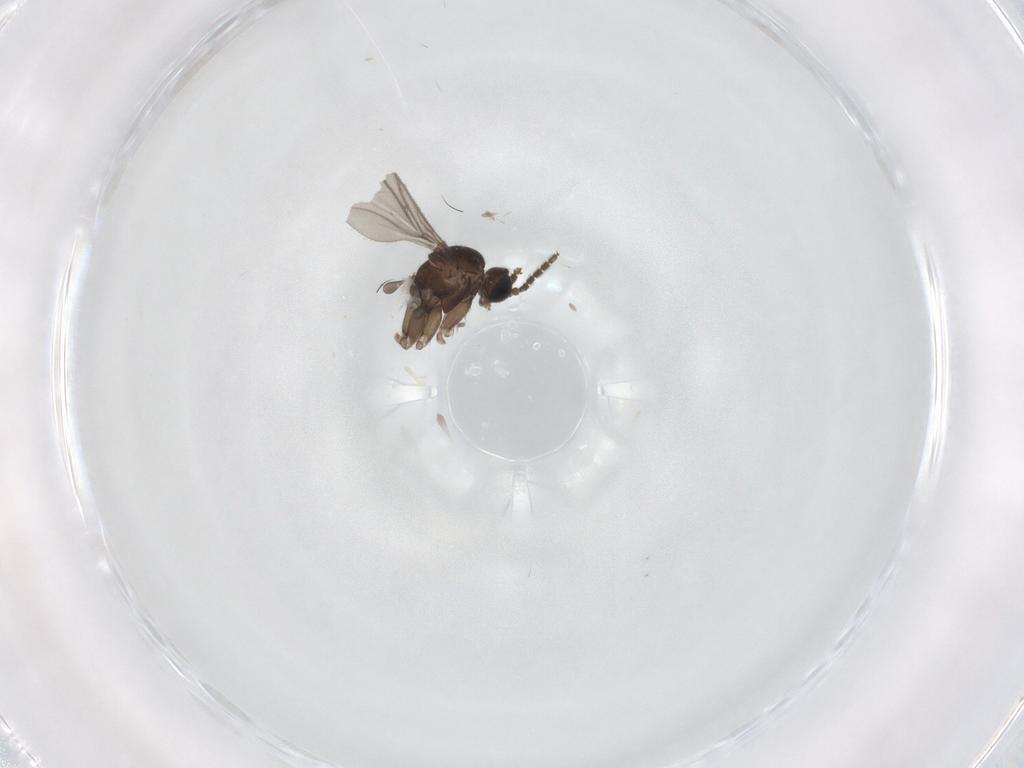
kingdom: Animalia
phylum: Arthropoda
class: Insecta
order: Diptera
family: Sciaridae
